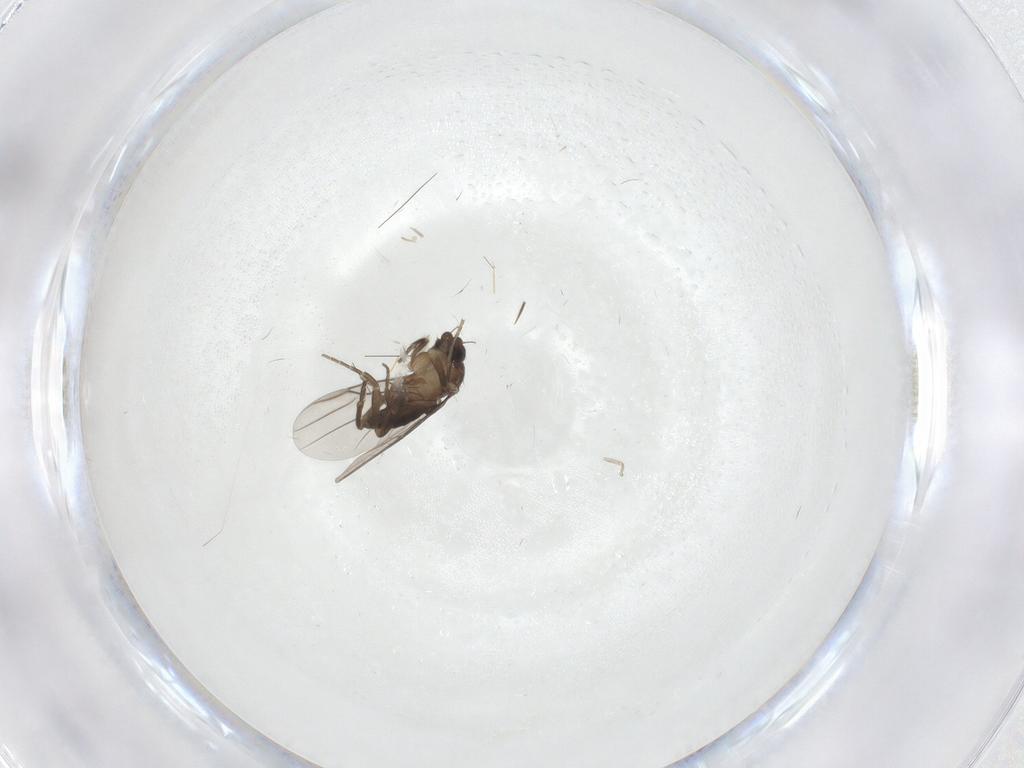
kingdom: Animalia
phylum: Arthropoda
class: Insecta
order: Diptera
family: Cecidomyiidae
